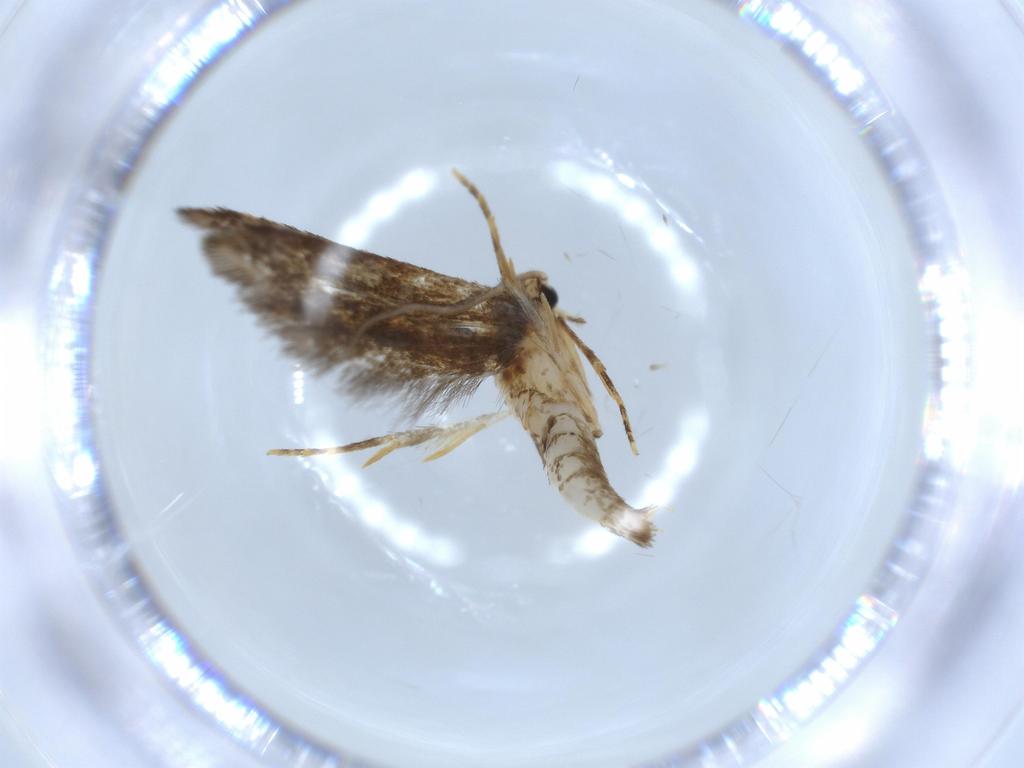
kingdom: Animalia
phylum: Arthropoda
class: Insecta
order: Lepidoptera
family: Tineidae
